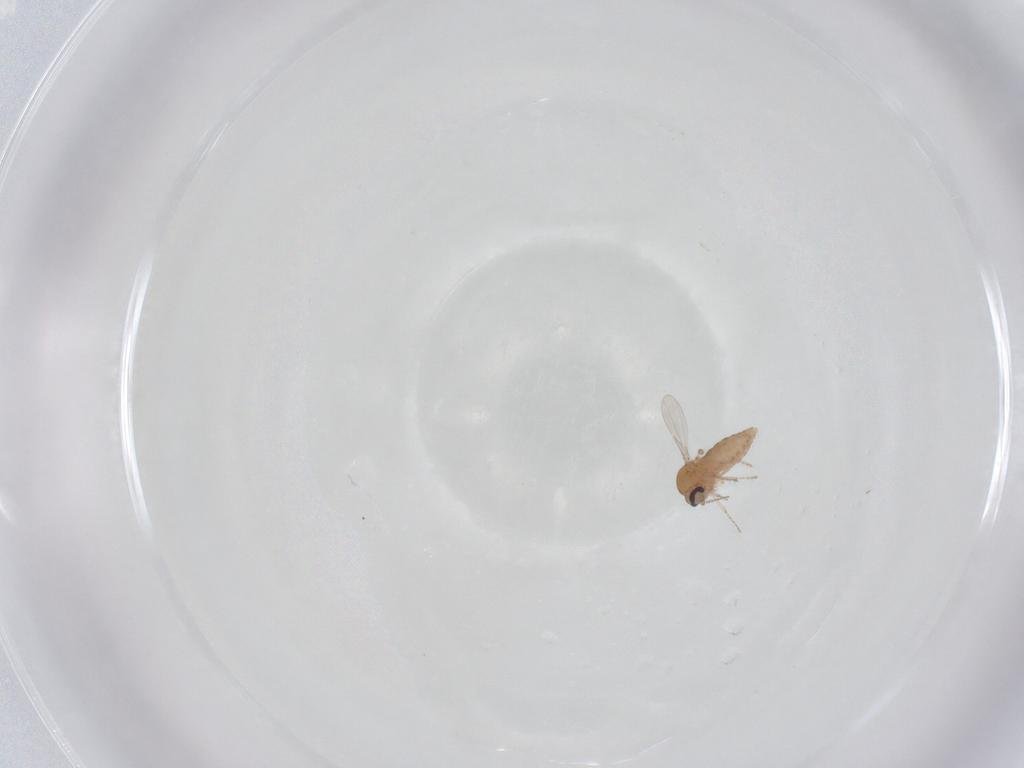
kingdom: Animalia
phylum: Arthropoda
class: Insecta
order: Diptera
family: Ceratopogonidae
